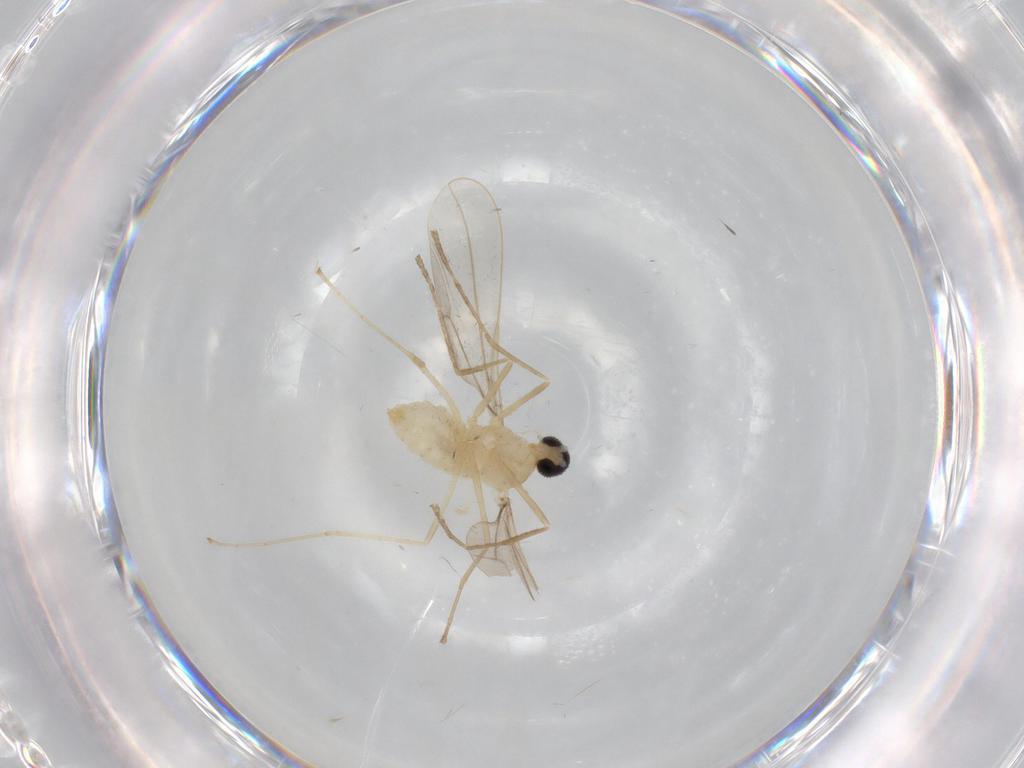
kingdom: Animalia
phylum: Arthropoda
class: Insecta
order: Diptera
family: Cecidomyiidae
